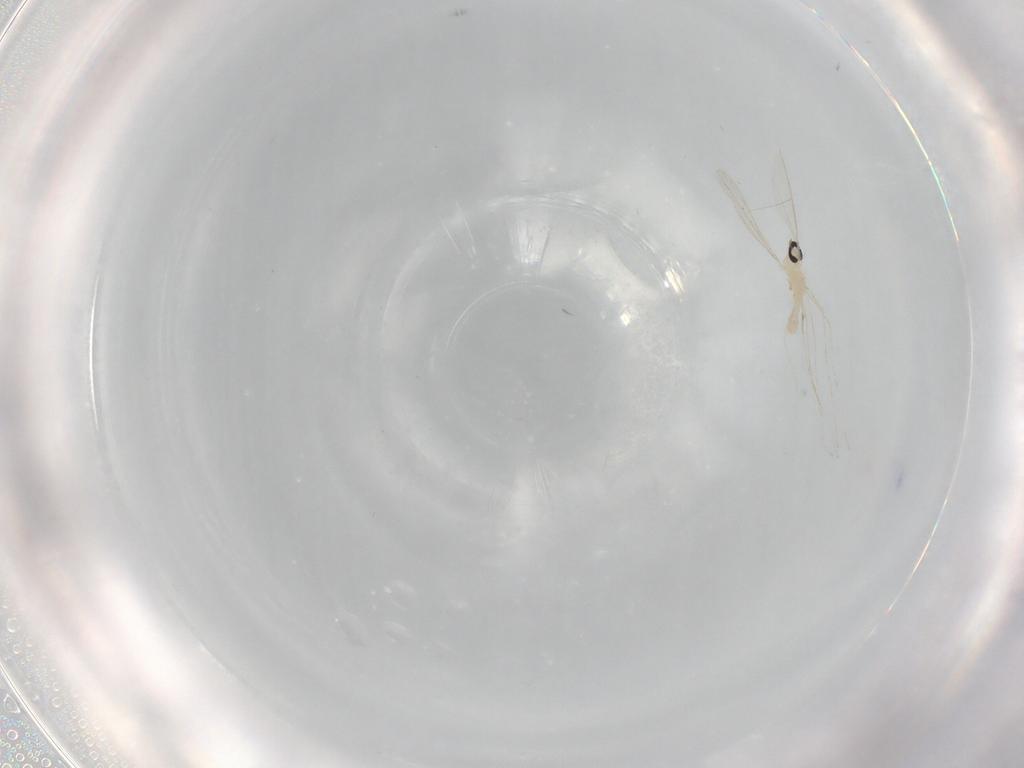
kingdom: Animalia
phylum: Arthropoda
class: Insecta
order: Diptera
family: Cecidomyiidae
